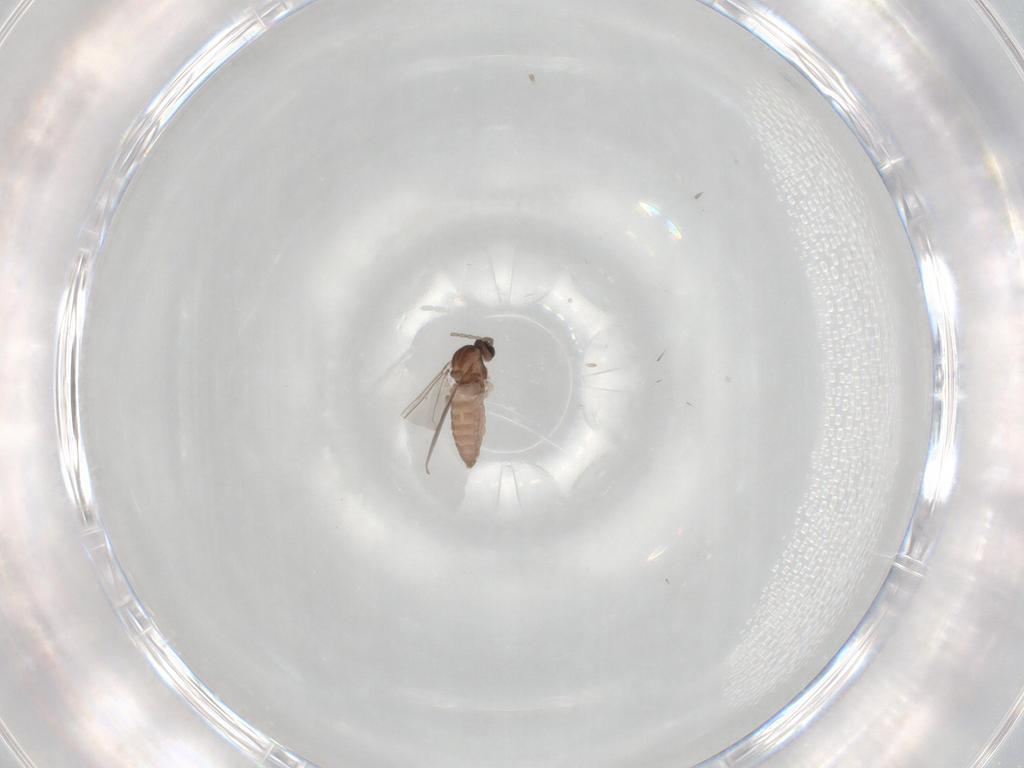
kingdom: Animalia
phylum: Arthropoda
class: Insecta
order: Diptera
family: Cecidomyiidae
